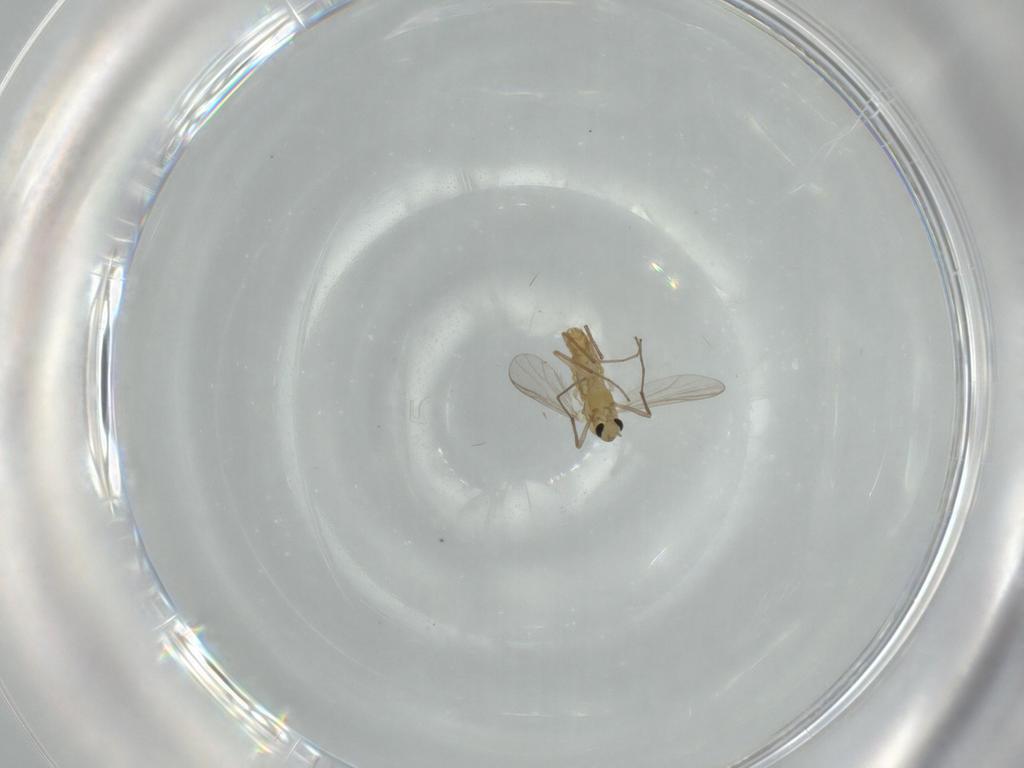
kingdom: Animalia
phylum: Arthropoda
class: Insecta
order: Diptera
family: Chironomidae
